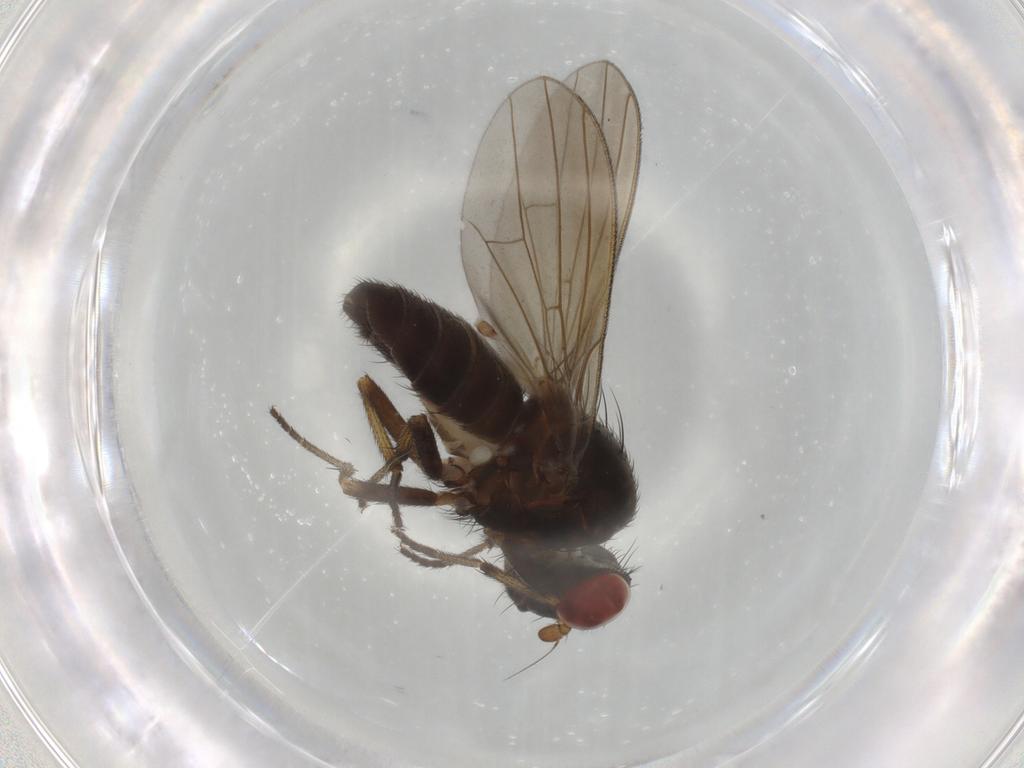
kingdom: Animalia
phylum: Arthropoda
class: Insecta
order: Diptera
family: Lauxaniidae
